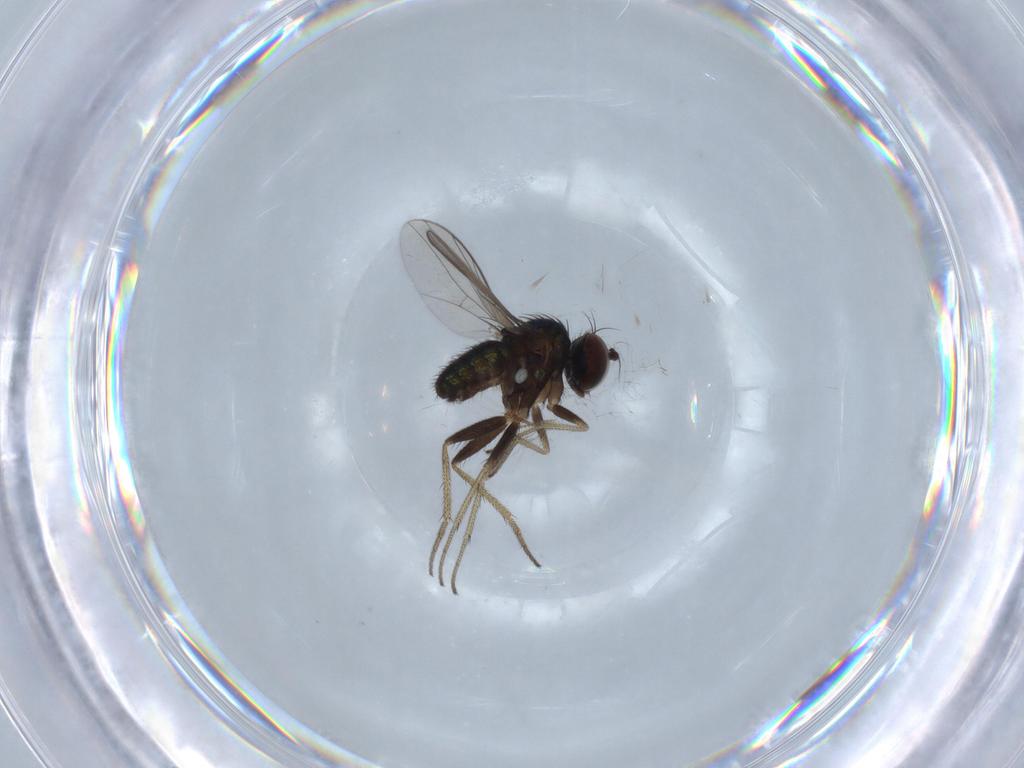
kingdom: Animalia
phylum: Arthropoda
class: Insecta
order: Diptera
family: Chironomidae
